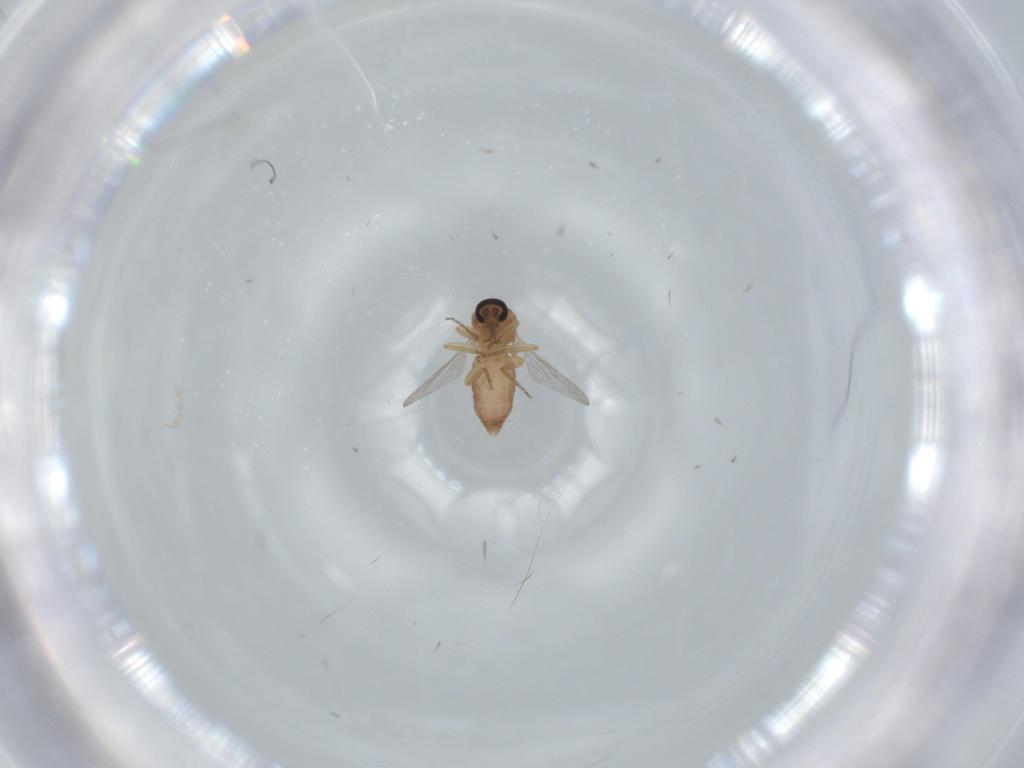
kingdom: Animalia
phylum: Arthropoda
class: Insecta
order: Diptera
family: Ceratopogonidae
